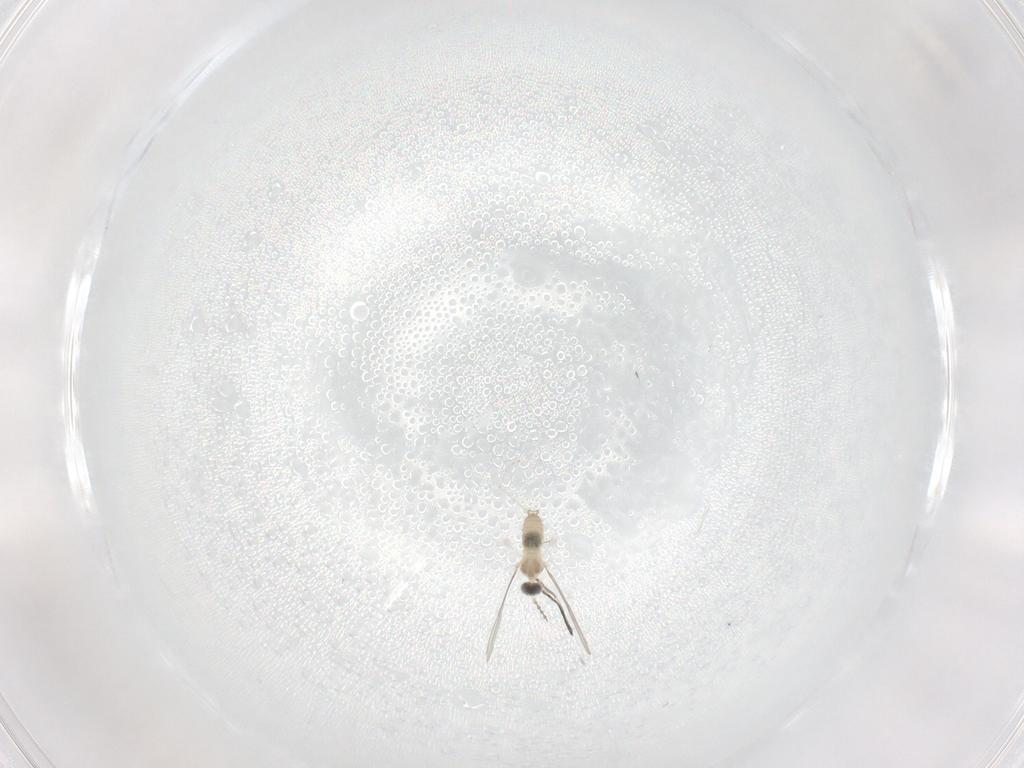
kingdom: Animalia
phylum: Arthropoda
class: Insecta
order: Diptera
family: Cecidomyiidae
